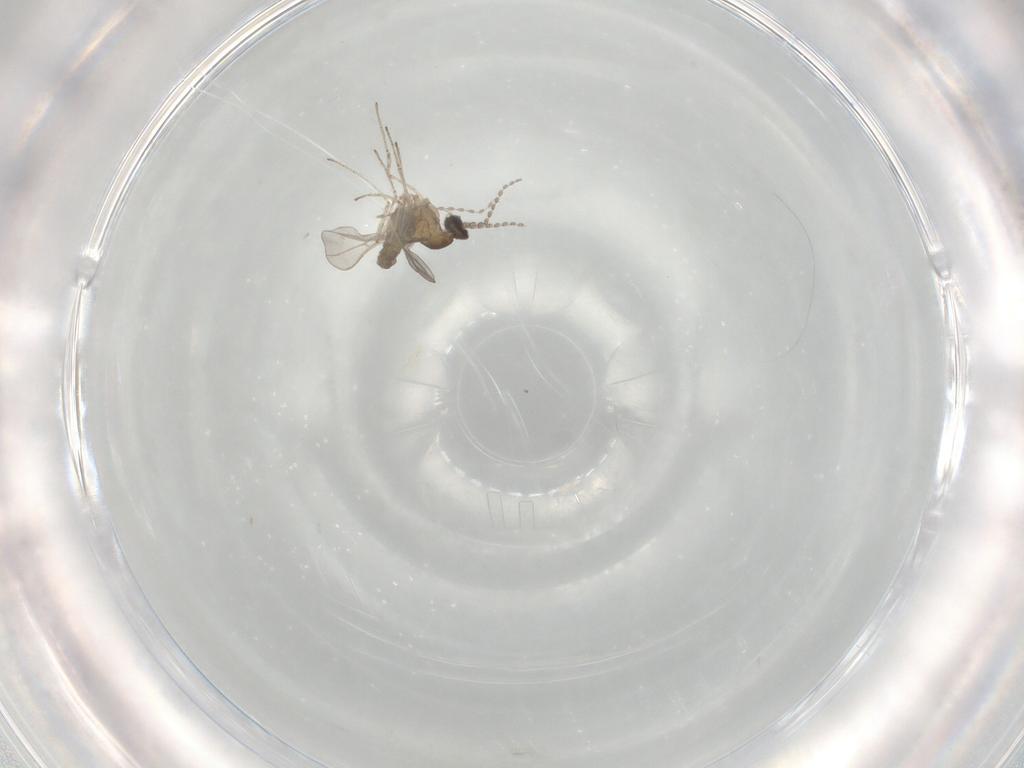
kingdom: Animalia
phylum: Arthropoda
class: Insecta
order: Diptera
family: Cecidomyiidae
